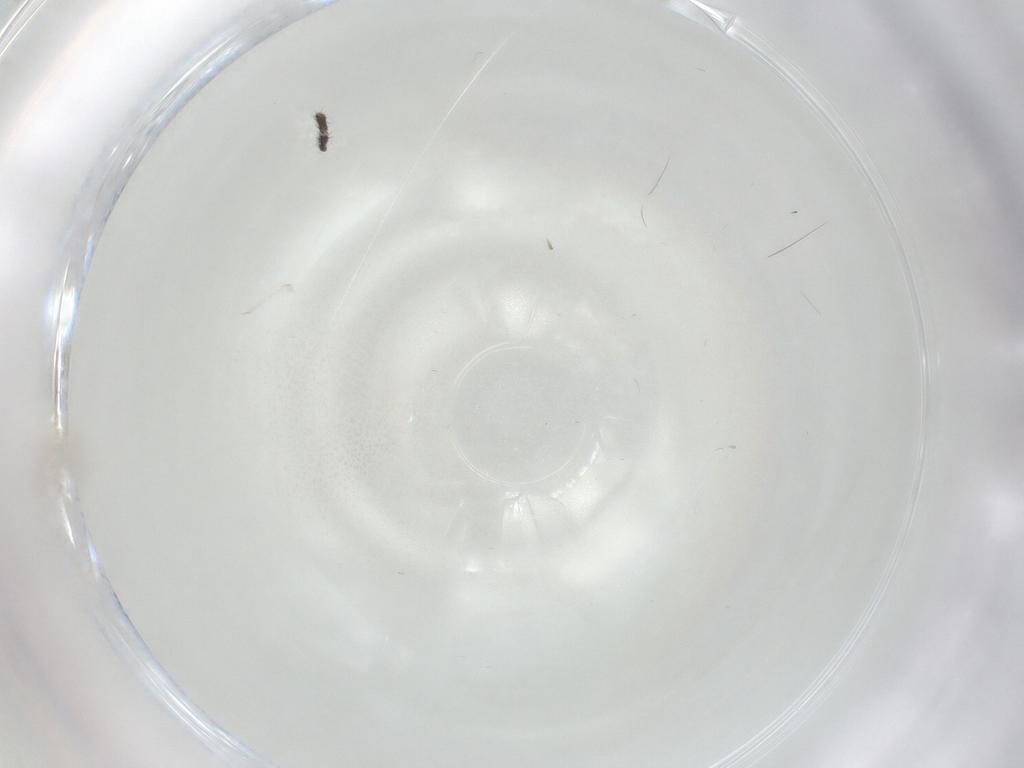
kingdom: Animalia
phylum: Arthropoda
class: Insecta
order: Diptera
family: Cecidomyiidae
